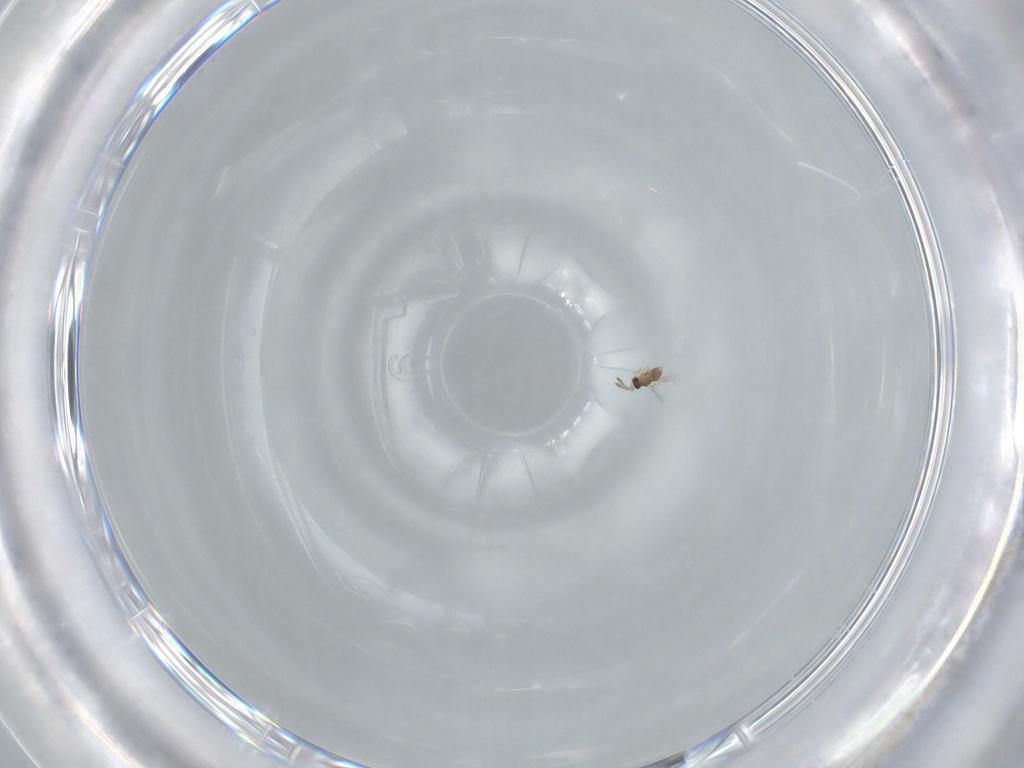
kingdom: Animalia
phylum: Arthropoda
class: Insecta
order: Hymenoptera
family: Mymaridae
